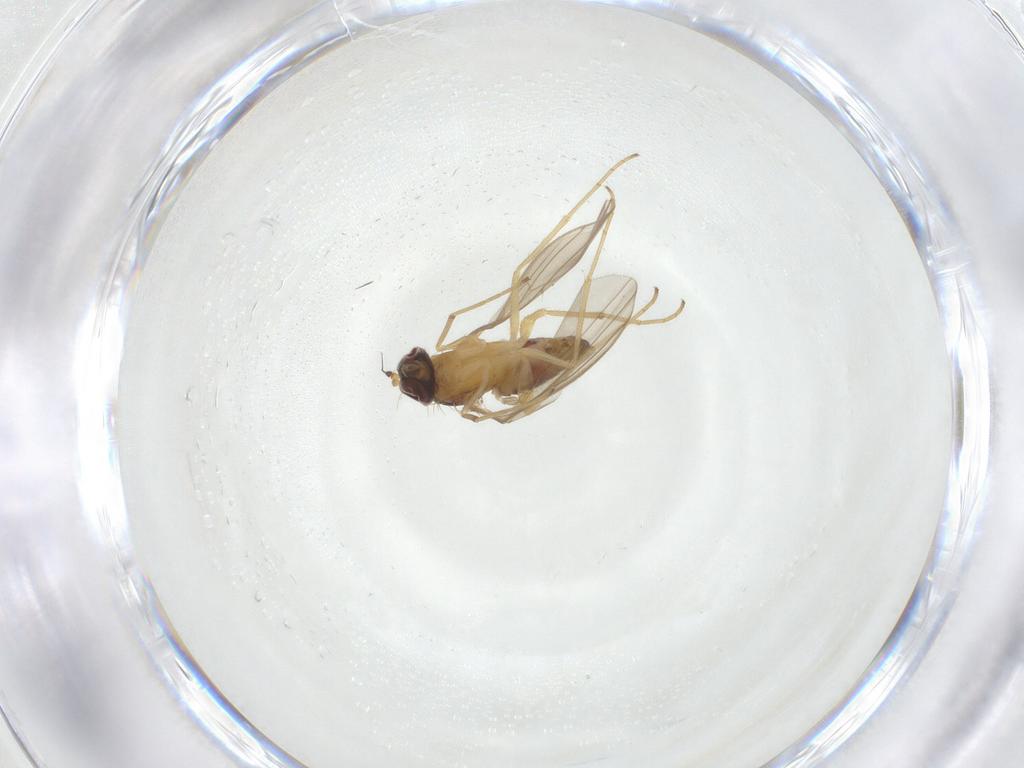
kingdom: Animalia
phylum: Arthropoda
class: Insecta
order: Diptera
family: Dolichopodidae
